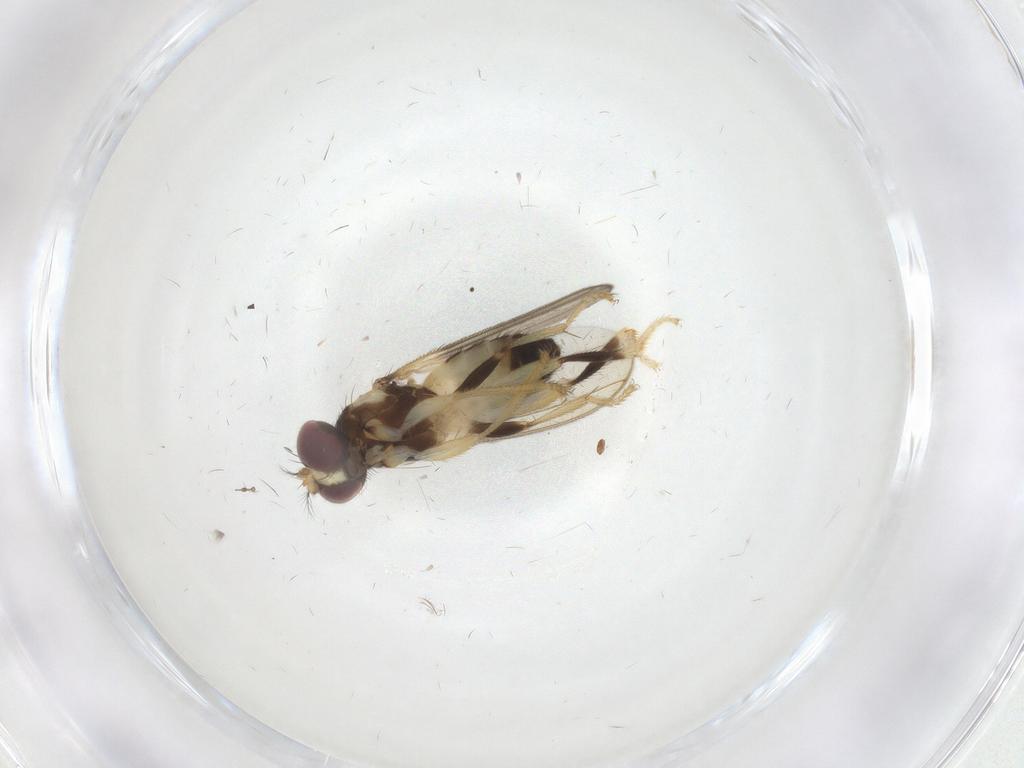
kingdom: Animalia
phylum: Arthropoda
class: Insecta
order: Diptera
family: Periscelididae
